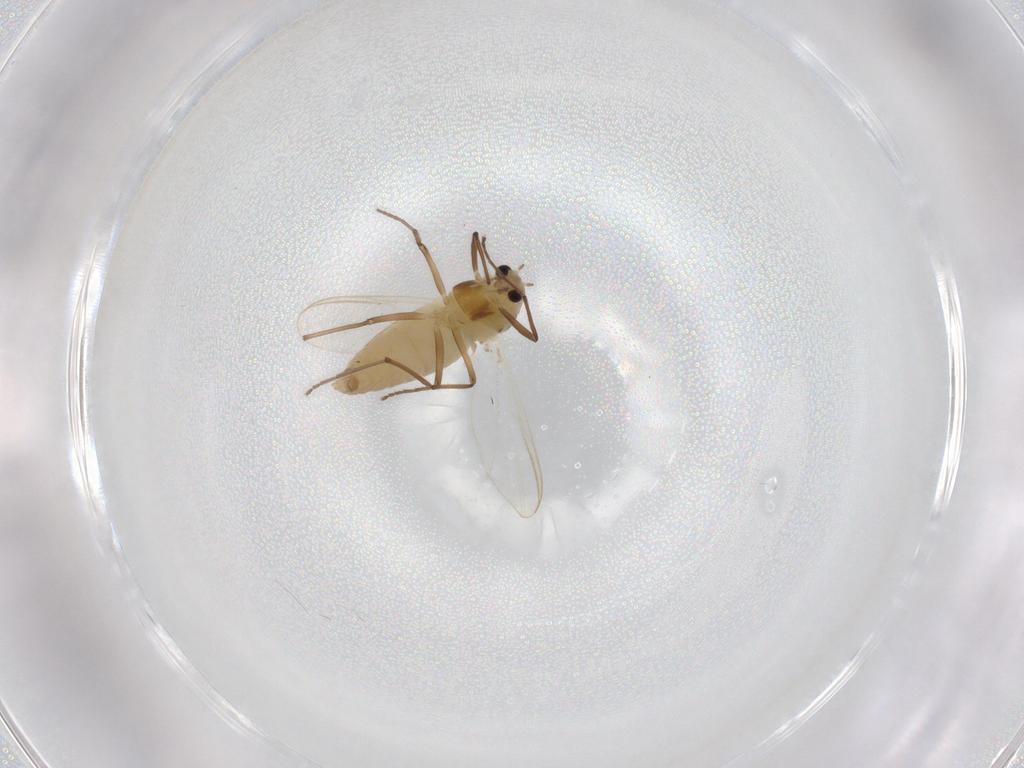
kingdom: Animalia
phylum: Arthropoda
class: Insecta
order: Diptera
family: Chironomidae
